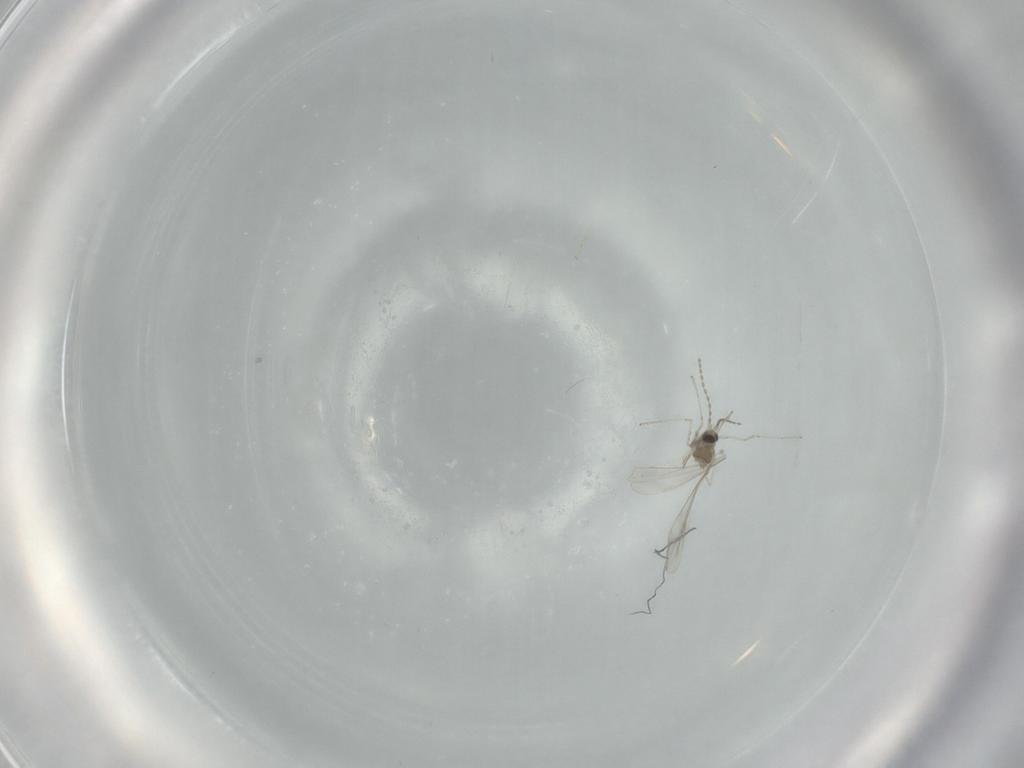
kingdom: Animalia
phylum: Arthropoda
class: Insecta
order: Diptera
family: Cecidomyiidae
